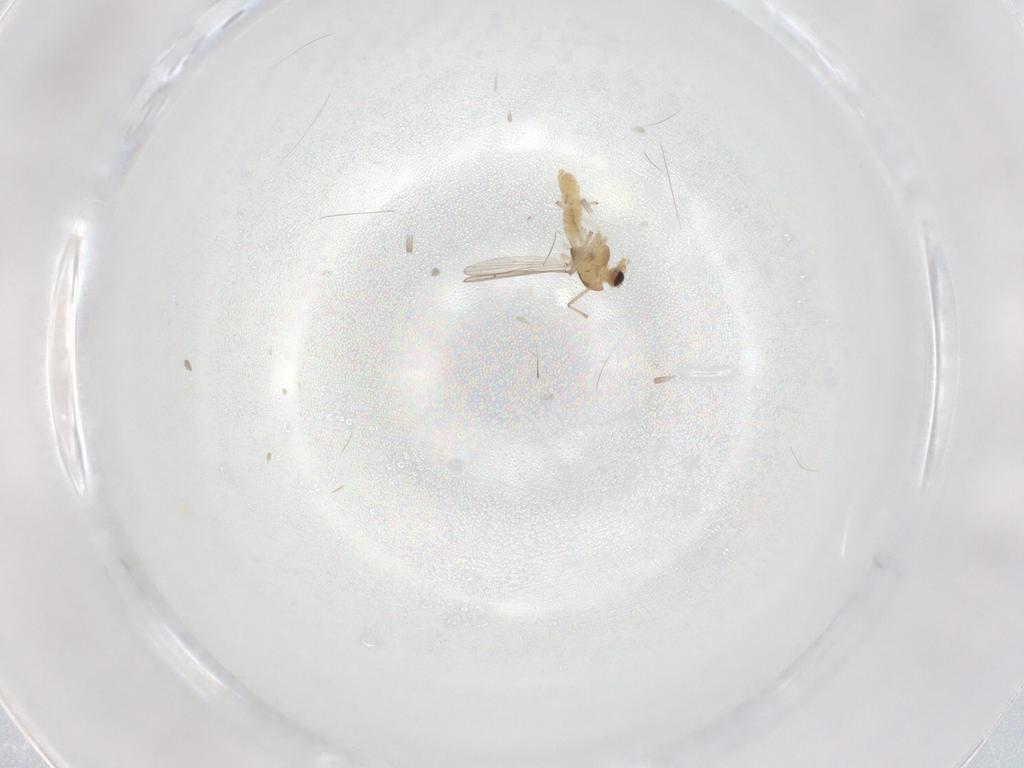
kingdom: Animalia
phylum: Arthropoda
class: Insecta
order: Diptera
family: Chironomidae
